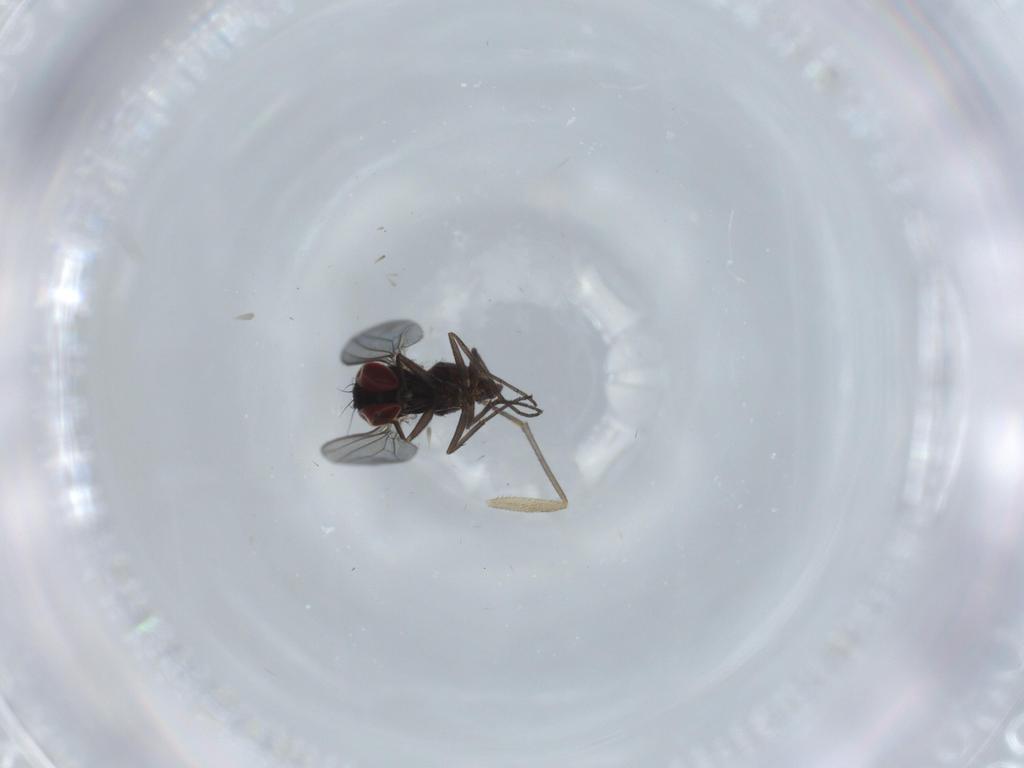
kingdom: Animalia
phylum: Arthropoda
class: Insecta
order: Diptera
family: Sciaridae
